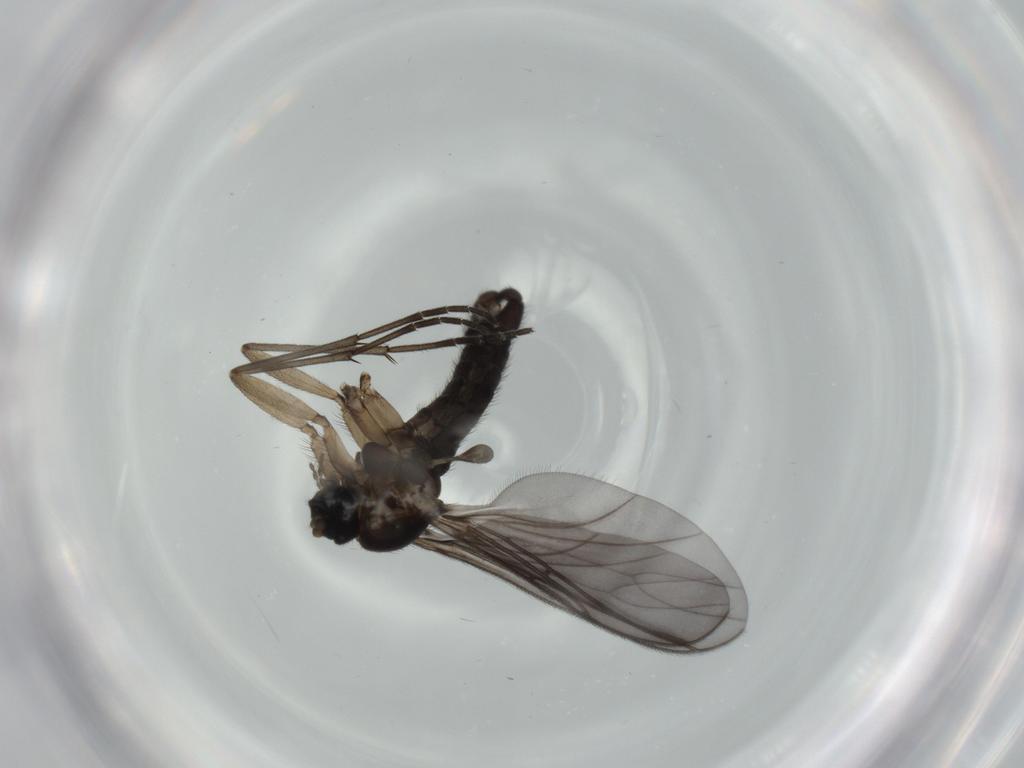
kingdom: Animalia
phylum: Arthropoda
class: Insecta
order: Diptera
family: Sciaridae
